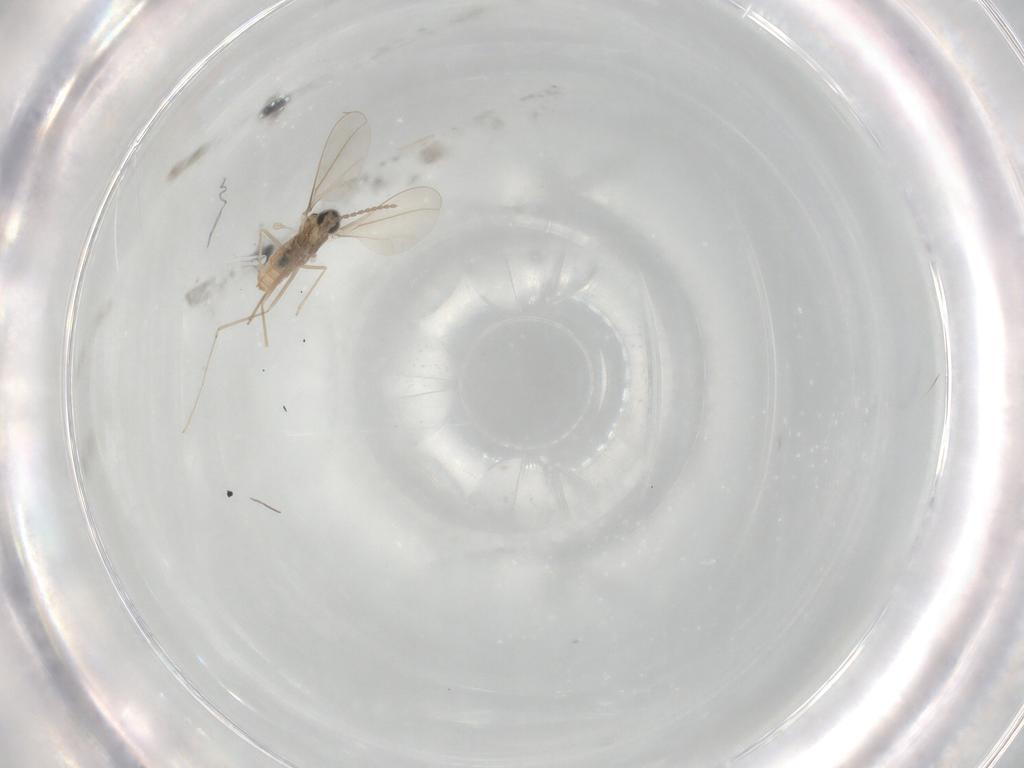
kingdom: Animalia
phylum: Arthropoda
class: Insecta
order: Diptera
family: Cecidomyiidae
